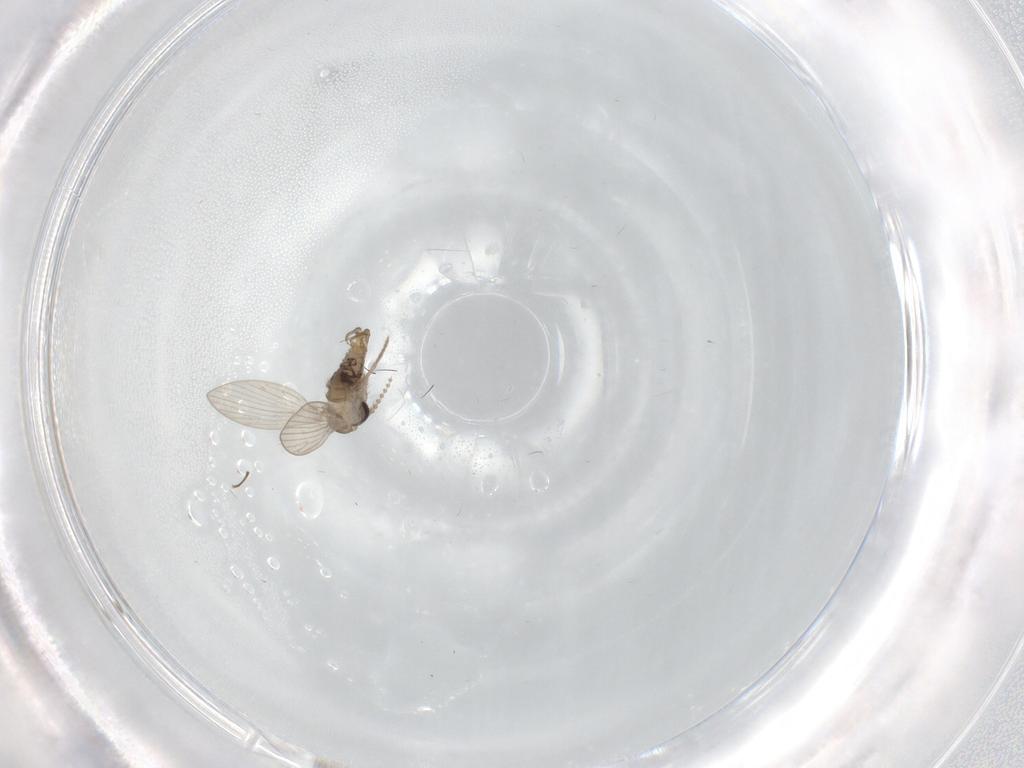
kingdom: Animalia
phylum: Arthropoda
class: Insecta
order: Diptera
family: Psychodidae
